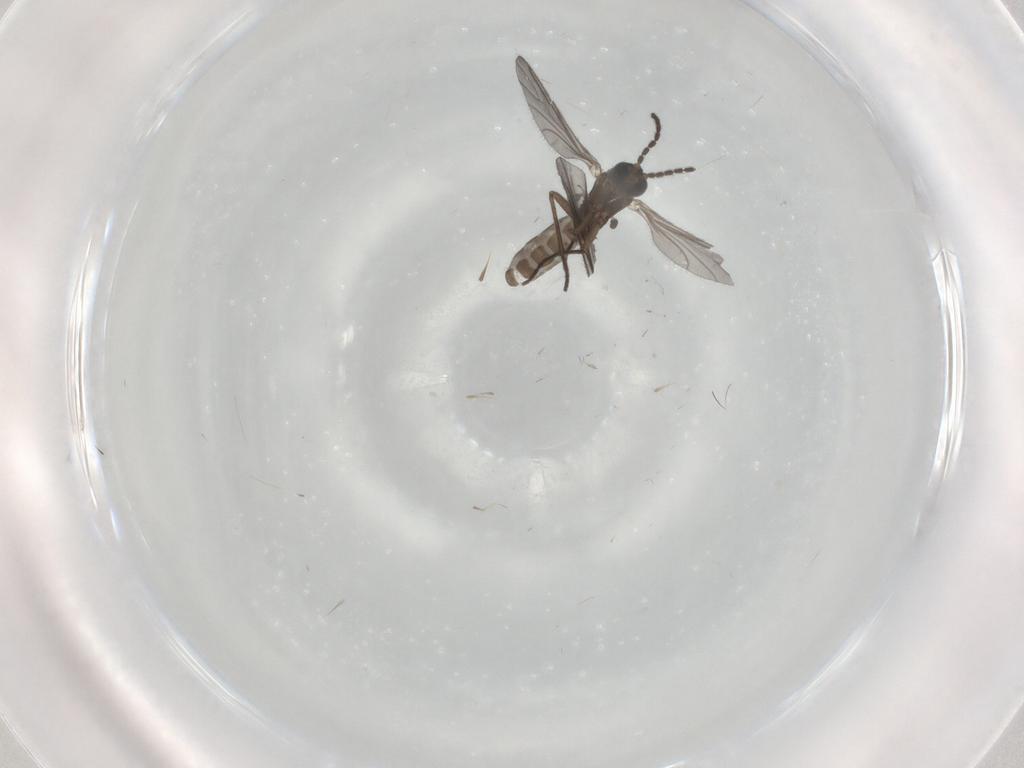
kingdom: Animalia
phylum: Arthropoda
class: Insecta
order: Diptera
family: Sciaridae
